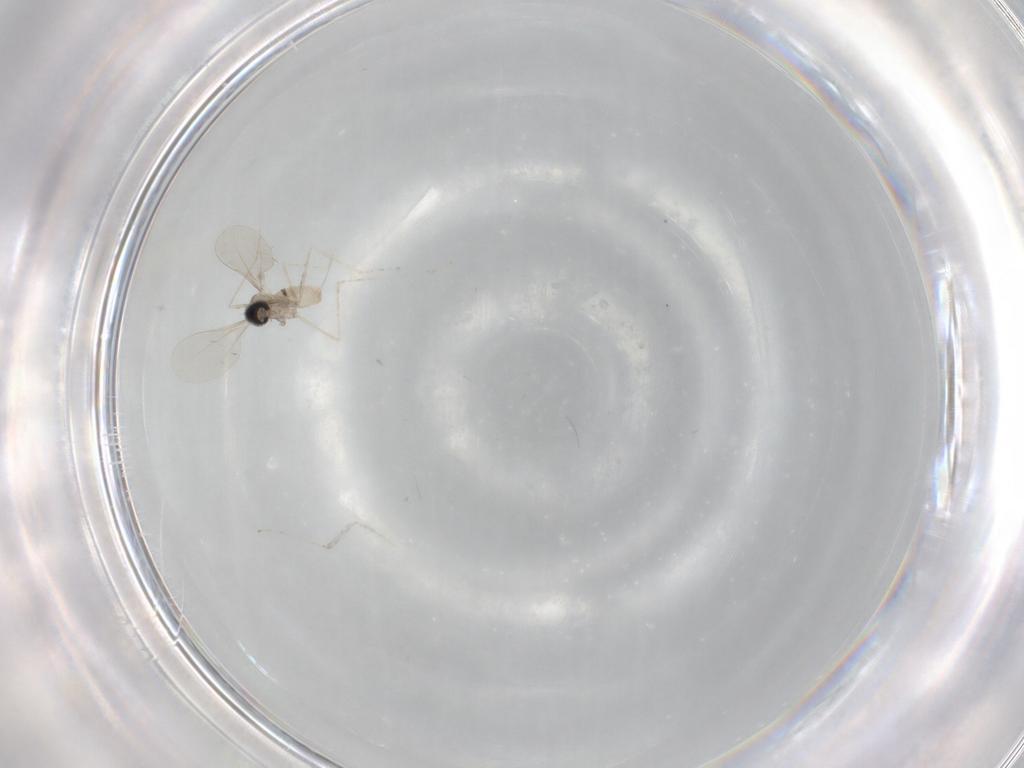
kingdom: Animalia
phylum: Arthropoda
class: Insecta
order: Diptera
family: Cecidomyiidae
